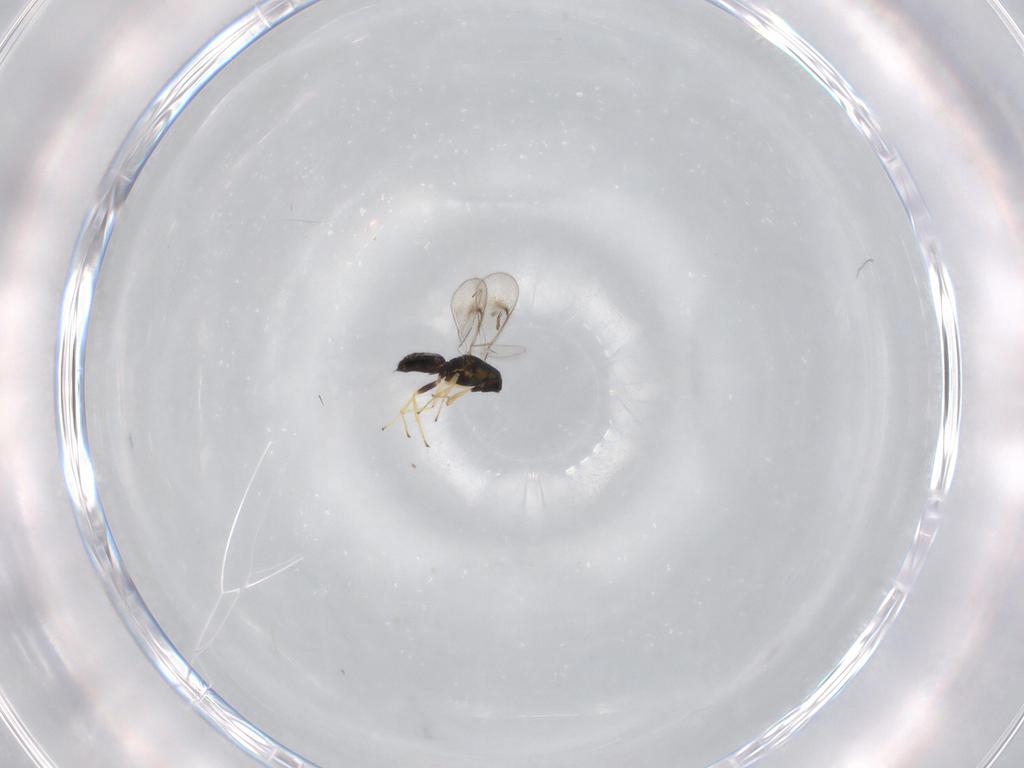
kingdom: Animalia
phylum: Arthropoda
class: Insecta
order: Hymenoptera
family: Eulophidae
